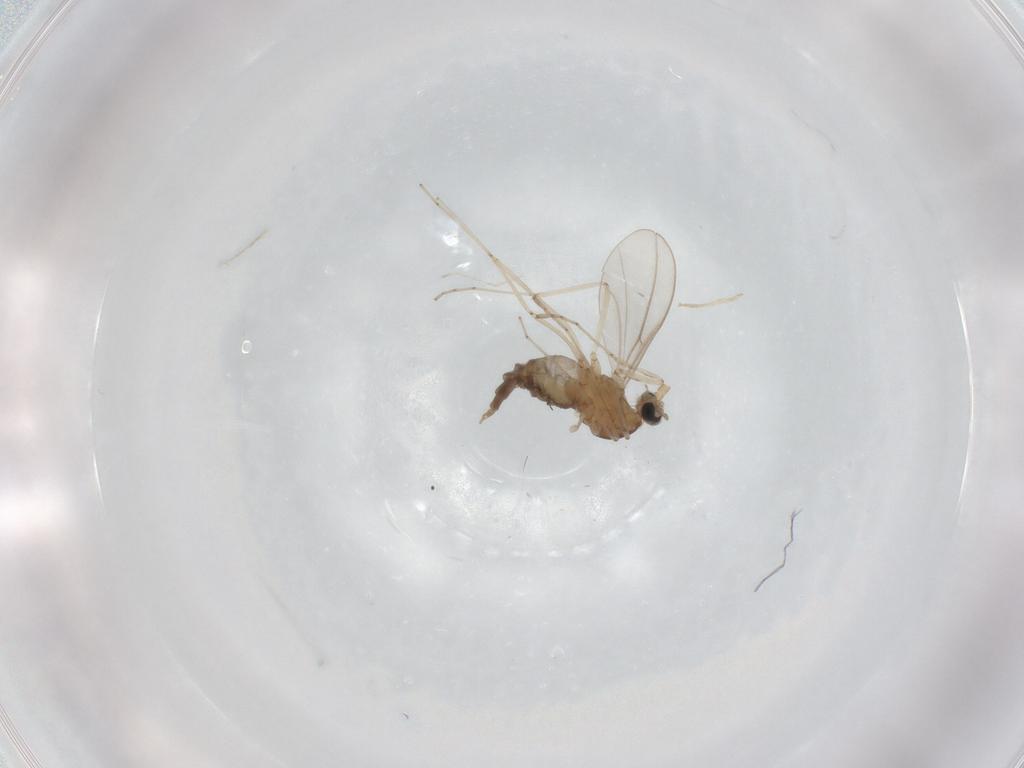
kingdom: Animalia
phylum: Arthropoda
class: Insecta
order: Diptera
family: Cecidomyiidae
